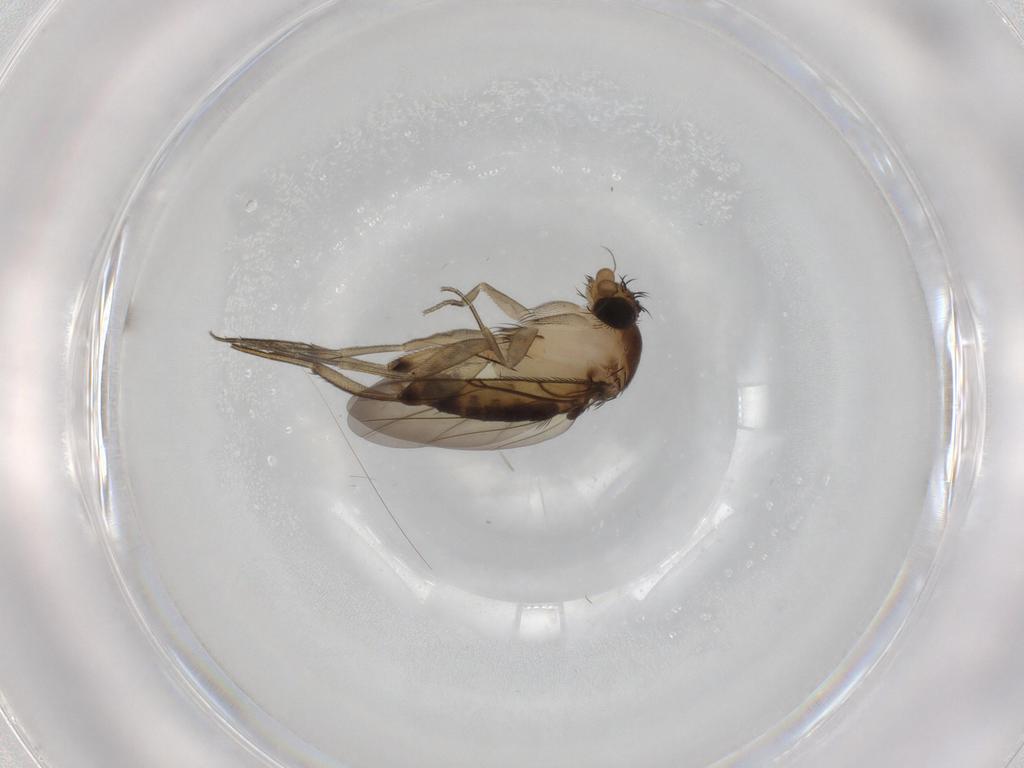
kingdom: Animalia
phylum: Arthropoda
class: Insecta
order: Diptera
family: Phoridae
